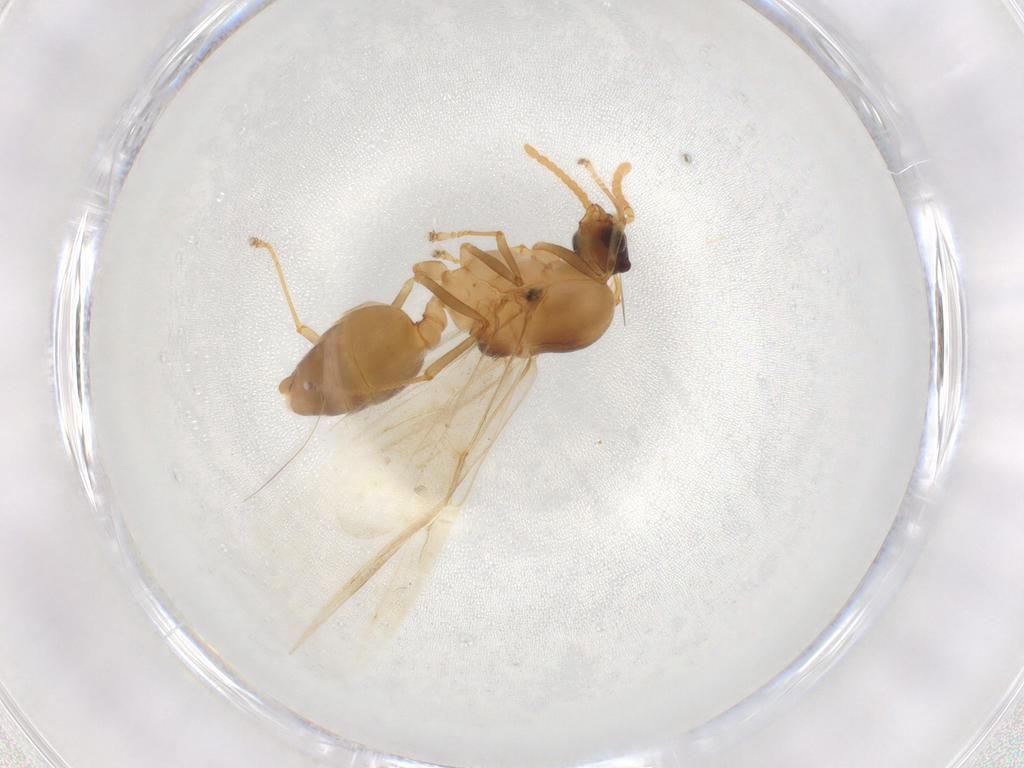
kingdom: Animalia
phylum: Arthropoda
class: Insecta
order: Hymenoptera
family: Formicidae
